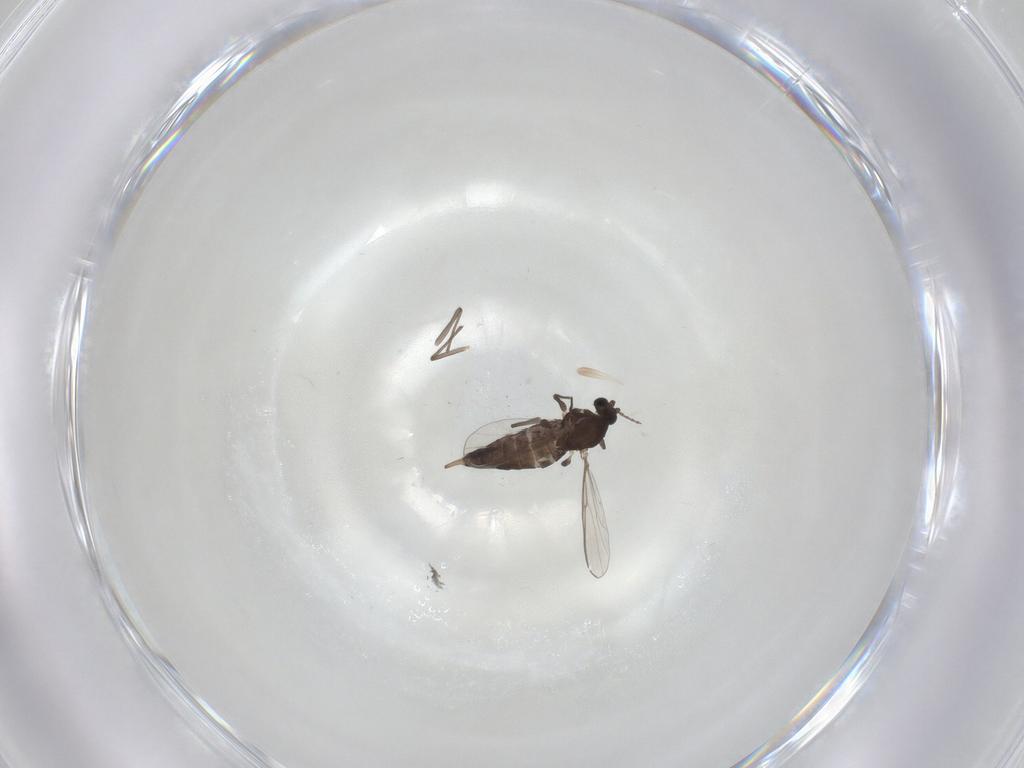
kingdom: Animalia
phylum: Arthropoda
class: Insecta
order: Diptera
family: Chironomidae
